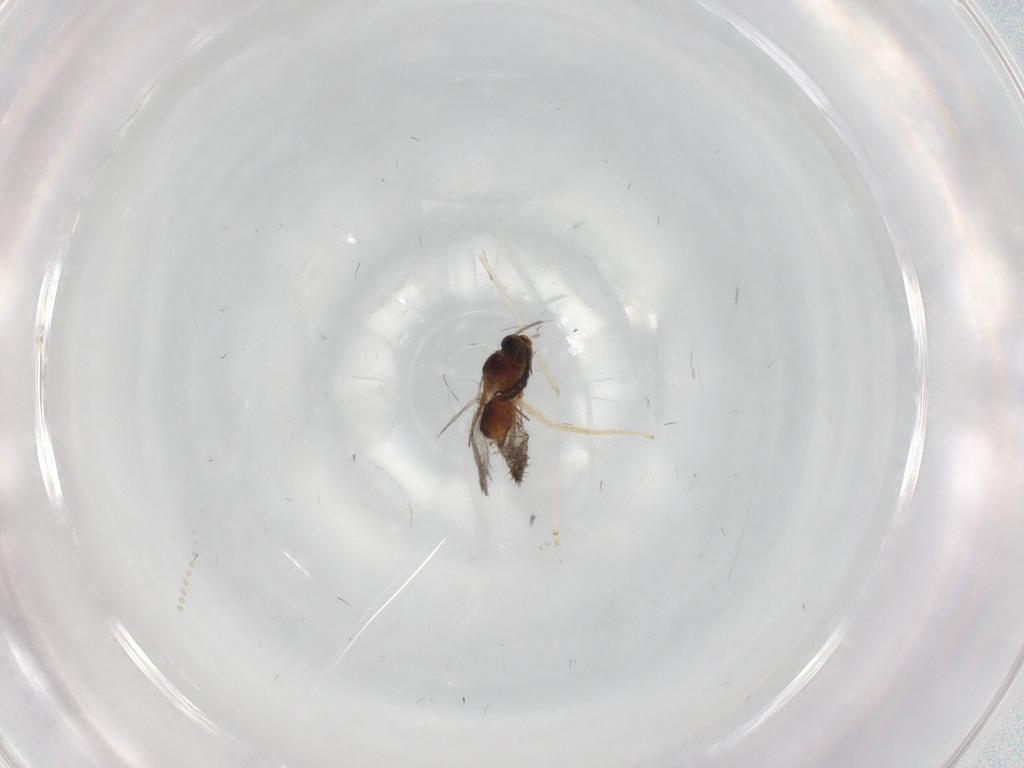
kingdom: Animalia
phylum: Arthropoda
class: Insecta
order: Hymenoptera
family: Figitidae
